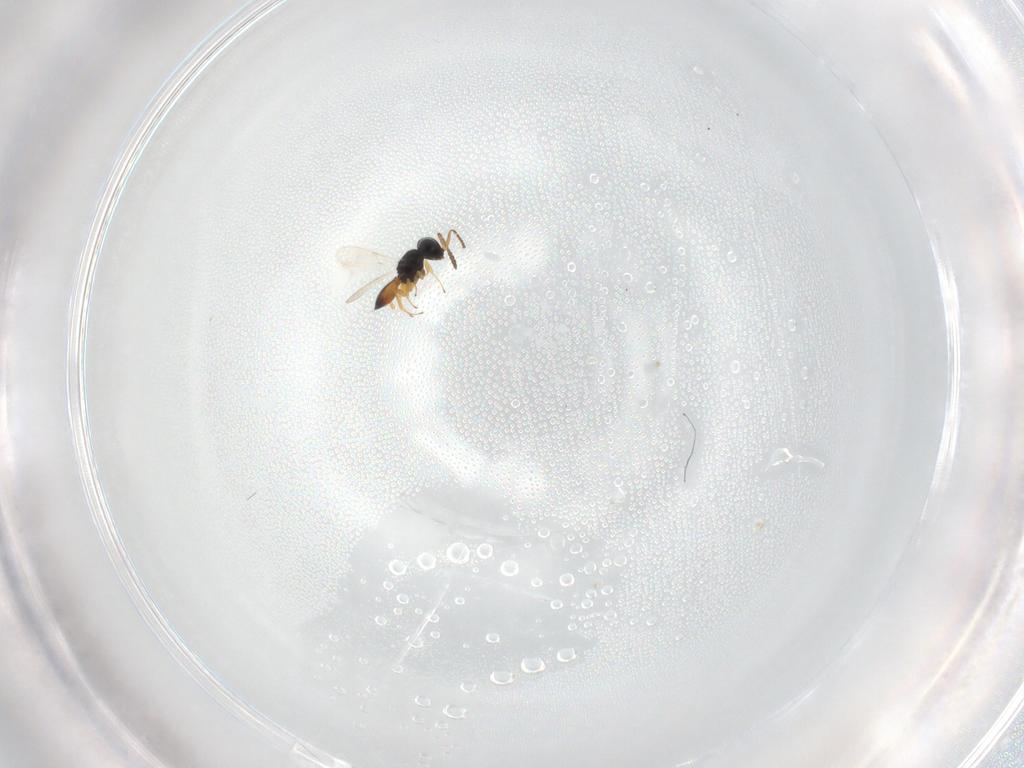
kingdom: Animalia
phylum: Arthropoda
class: Insecta
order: Hymenoptera
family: Vespidae
